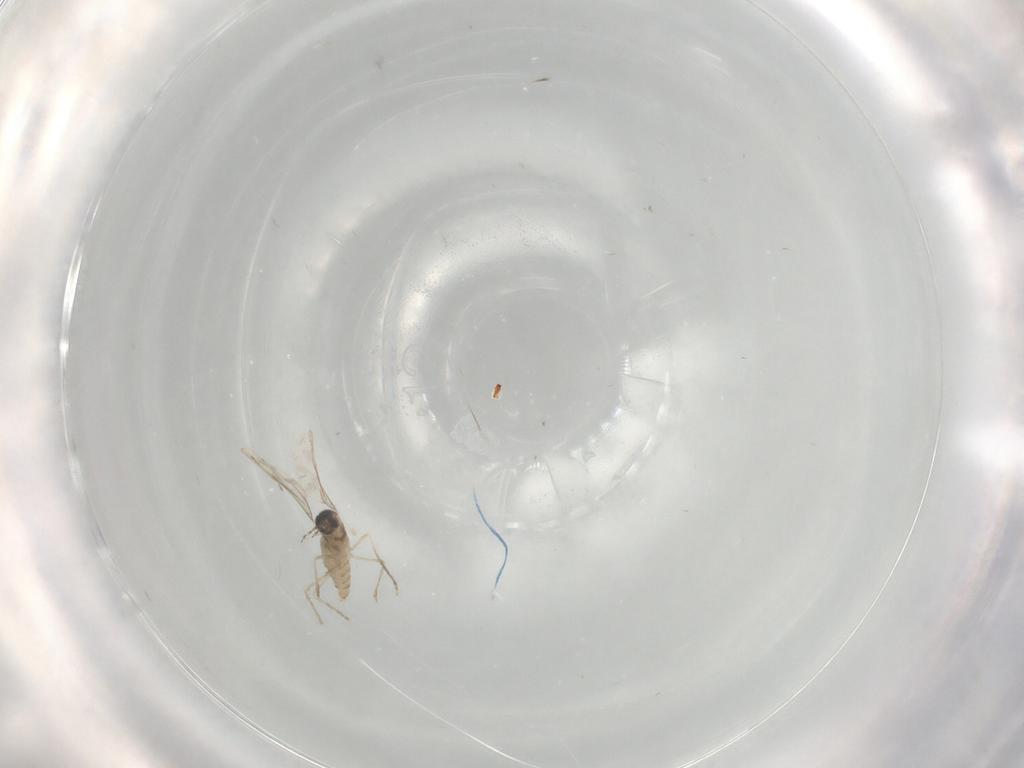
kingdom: Animalia
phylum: Arthropoda
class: Insecta
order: Diptera
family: Cecidomyiidae
